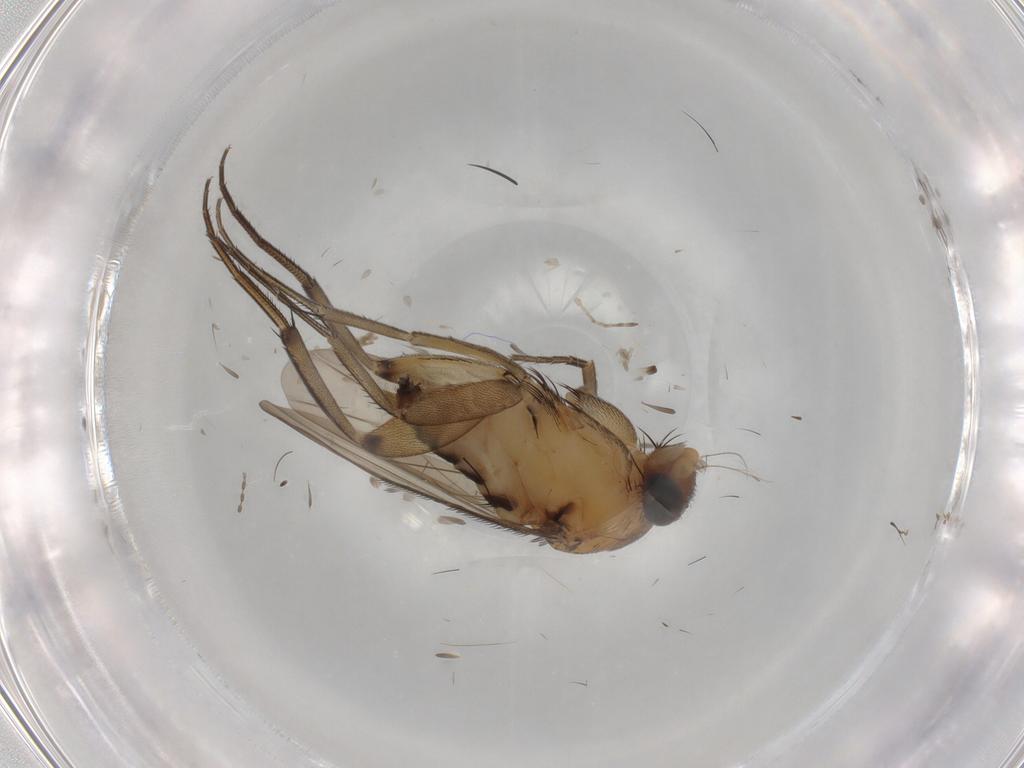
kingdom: Animalia
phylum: Arthropoda
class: Insecta
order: Diptera
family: Phoridae
